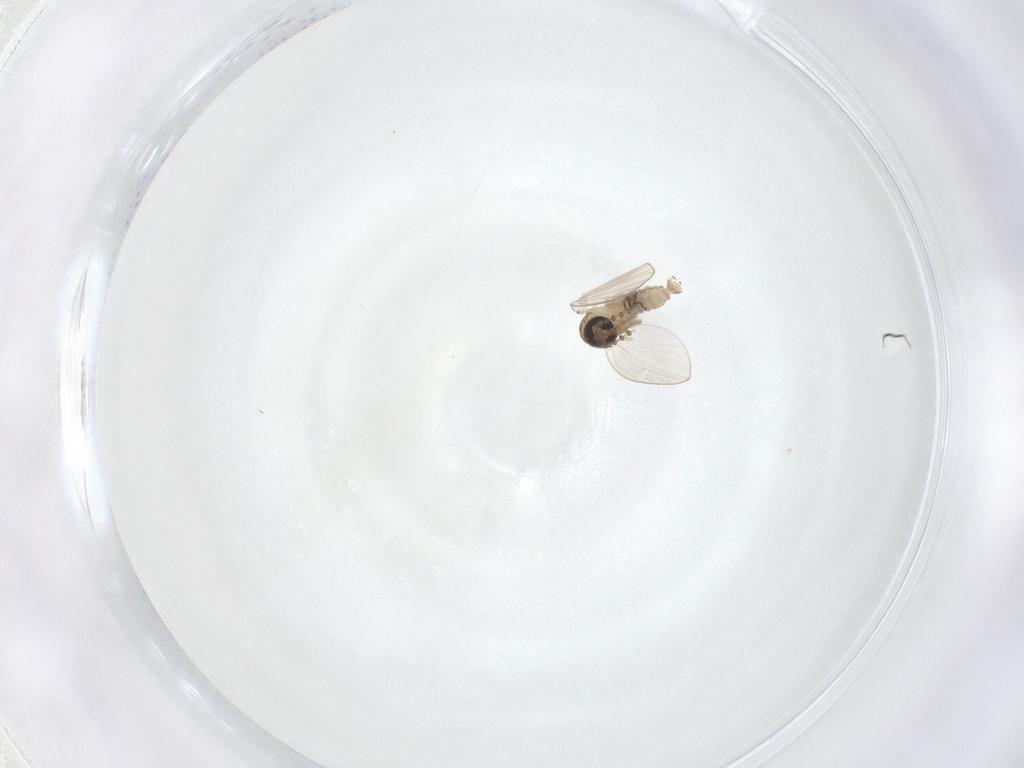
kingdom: Animalia
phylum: Arthropoda
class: Insecta
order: Diptera
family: Psychodidae
